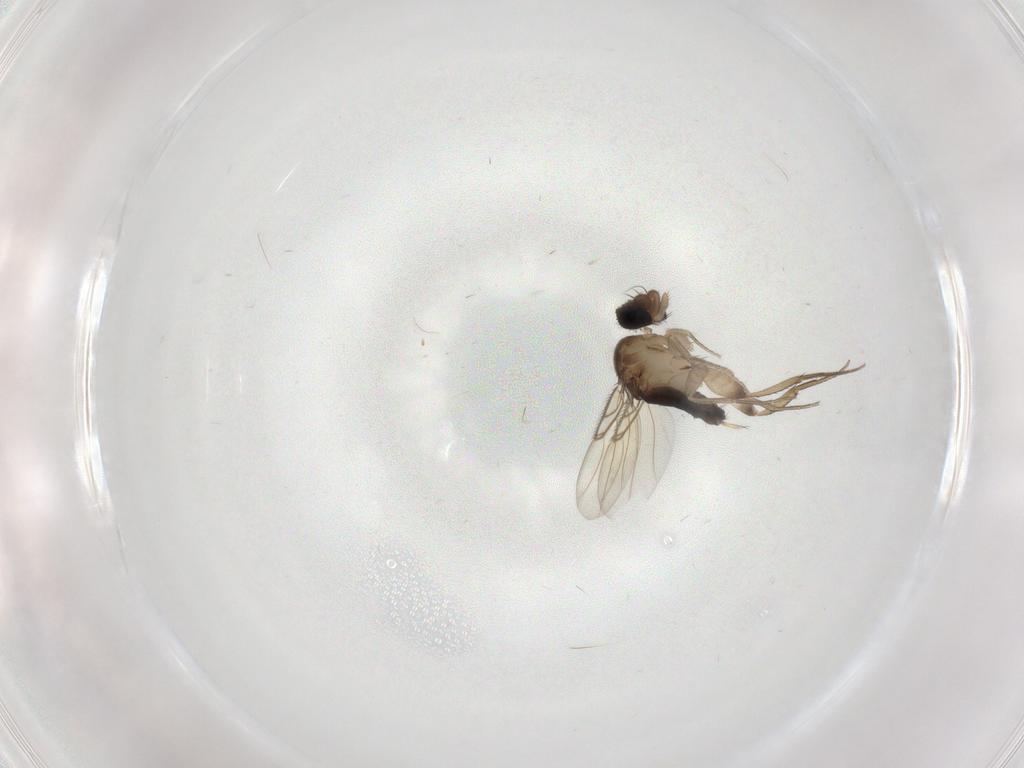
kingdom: Animalia
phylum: Arthropoda
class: Insecta
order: Diptera
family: Phoridae
